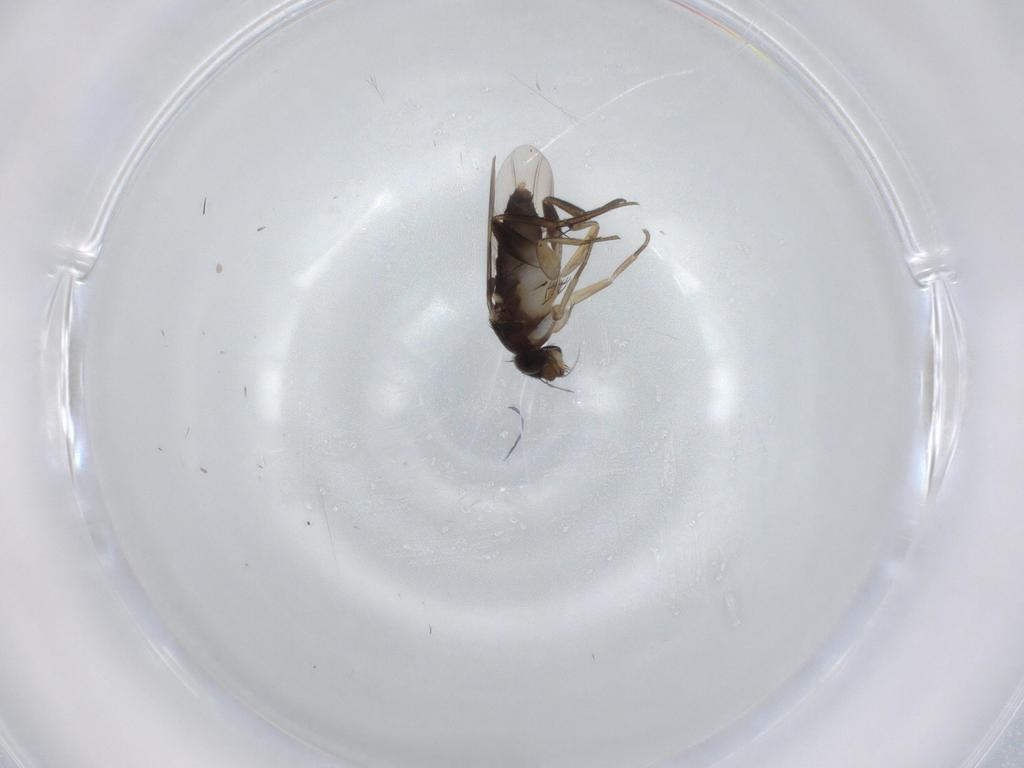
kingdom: Animalia
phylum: Arthropoda
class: Insecta
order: Diptera
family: Phoridae
